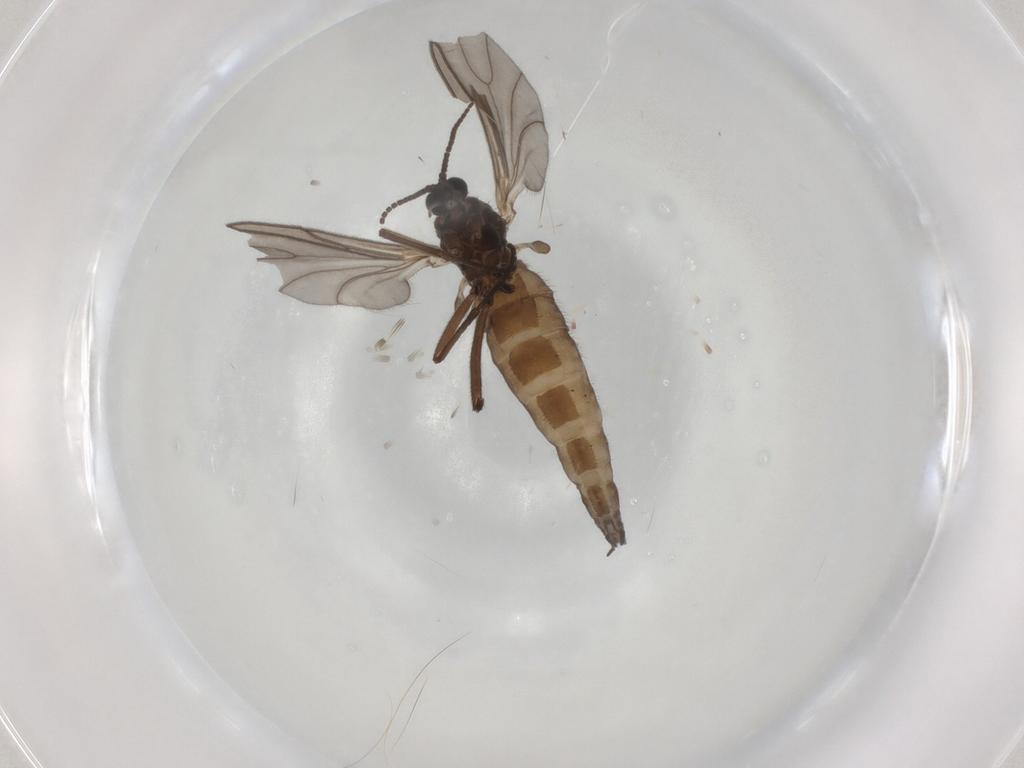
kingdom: Animalia
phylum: Arthropoda
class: Insecta
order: Diptera
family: Sciaridae
